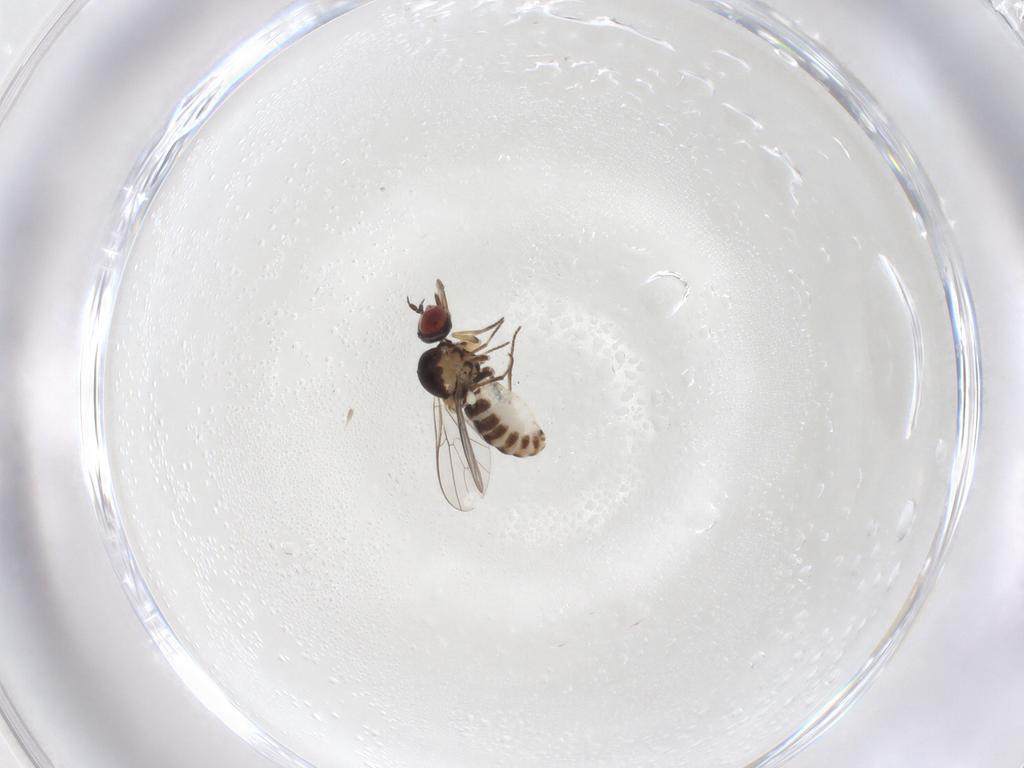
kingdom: Animalia
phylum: Arthropoda
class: Insecta
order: Diptera
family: Bombyliidae
